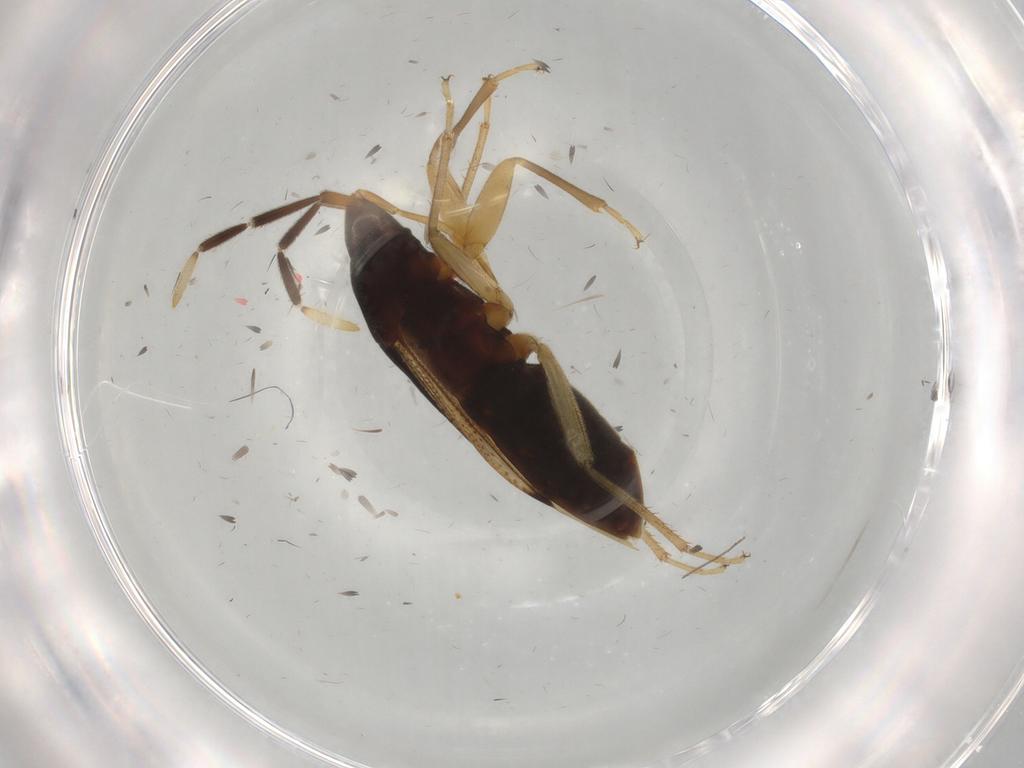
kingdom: Animalia
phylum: Arthropoda
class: Insecta
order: Hemiptera
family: Rhyparochromidae
